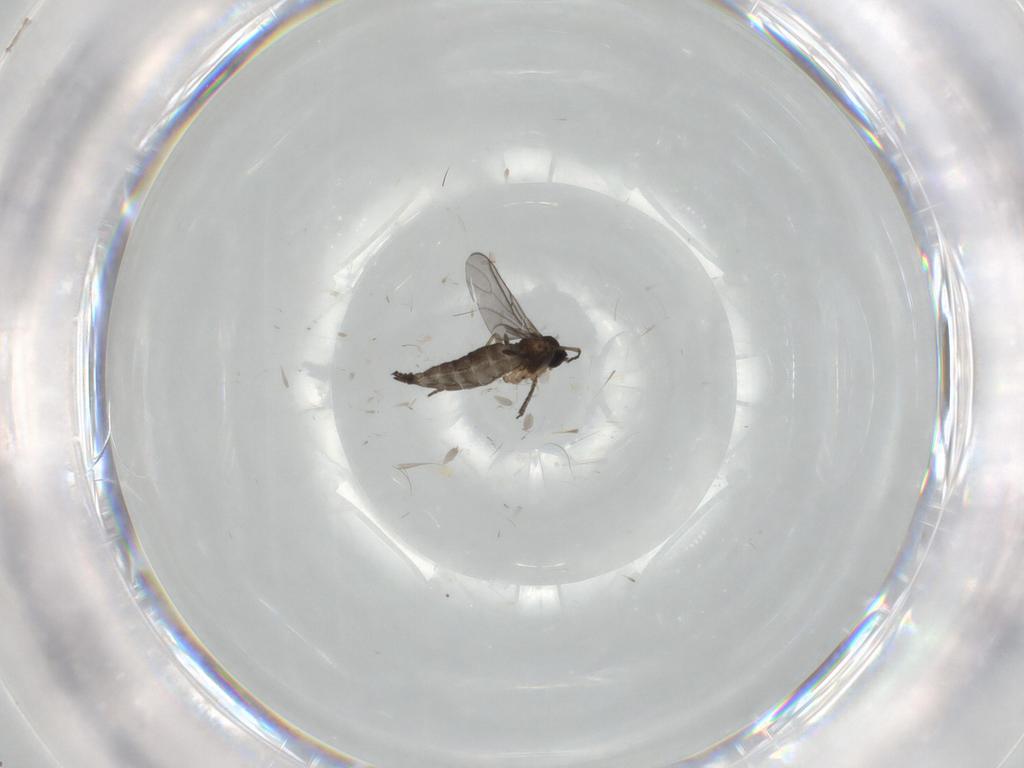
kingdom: Animalia
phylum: Arthropoda
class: Insecta
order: Diptera
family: Sciaridae
